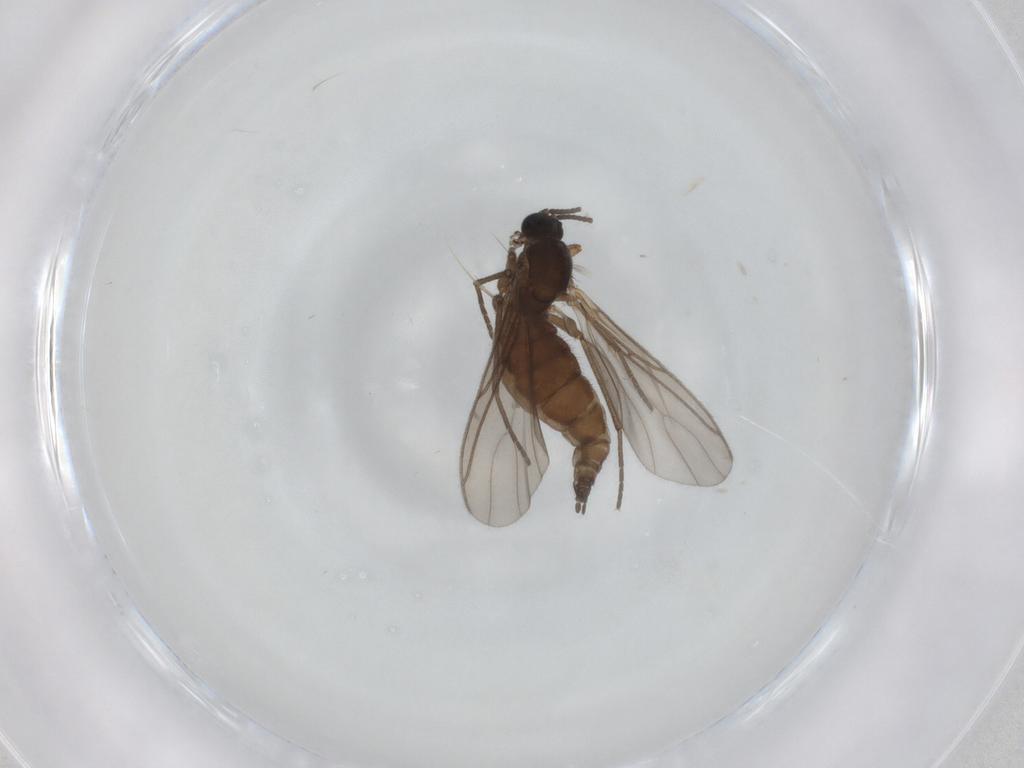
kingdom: Animalia
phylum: Arthropoda
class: Insecta
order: Diptera
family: Sciaridae
